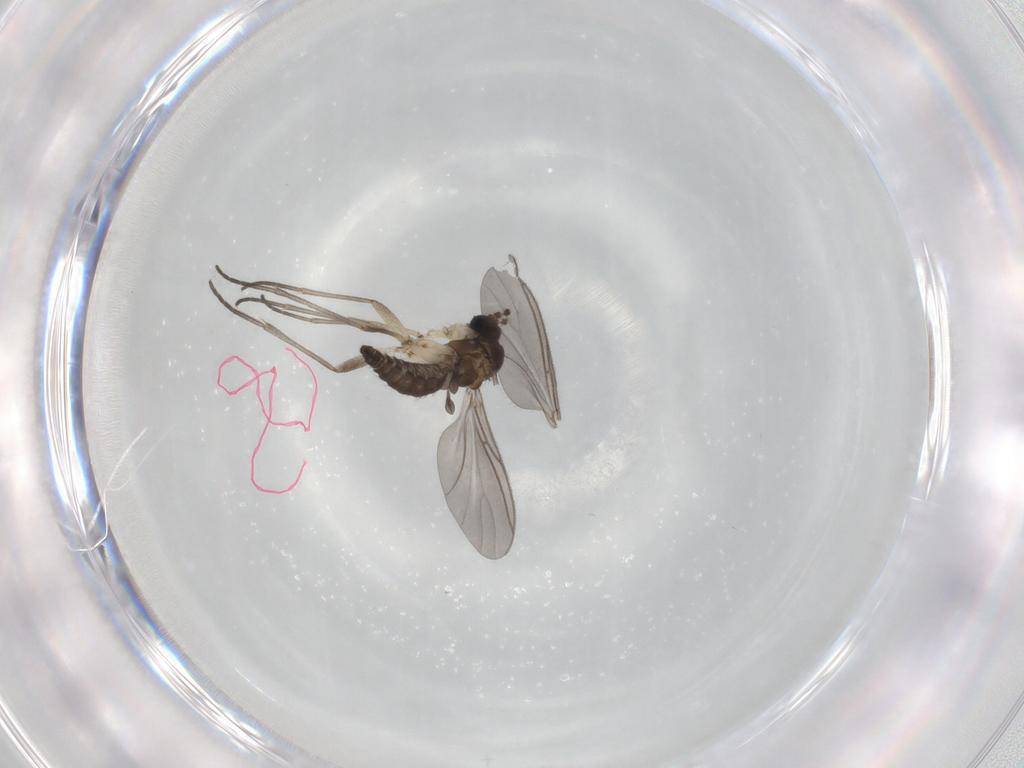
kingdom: Animalia
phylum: Arthropoda
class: Insecta
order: Diptera
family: Sciaridae
